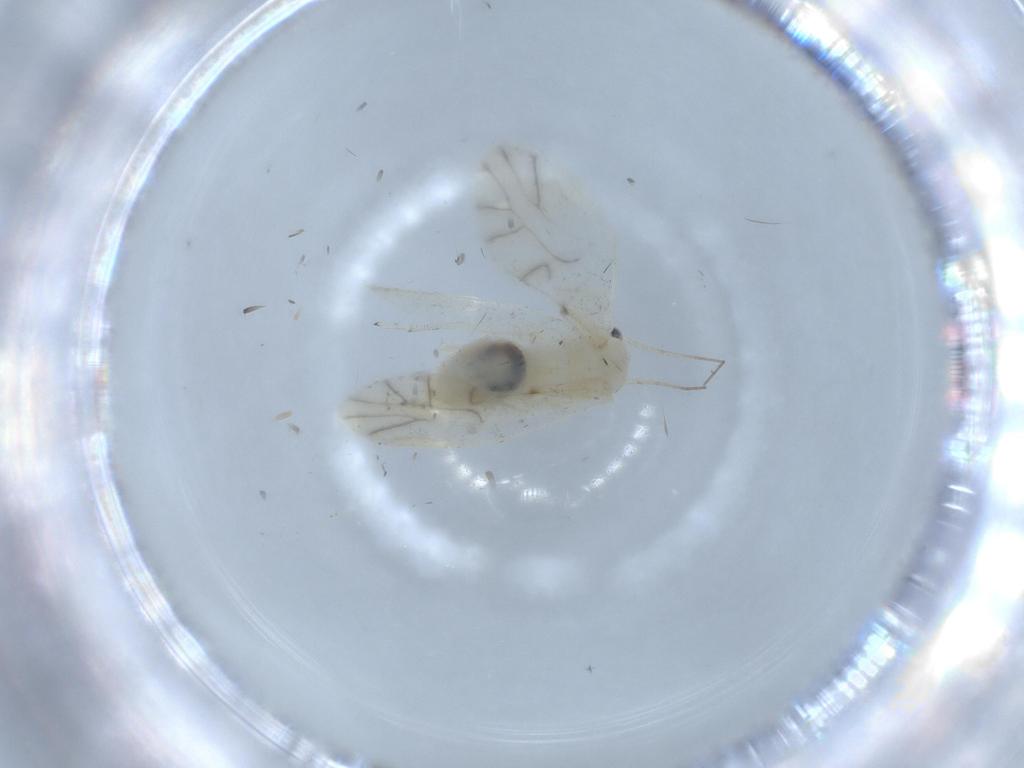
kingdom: Animalia
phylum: Arthropoda
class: Insecta
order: Psocodea
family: Caeciliusidae
